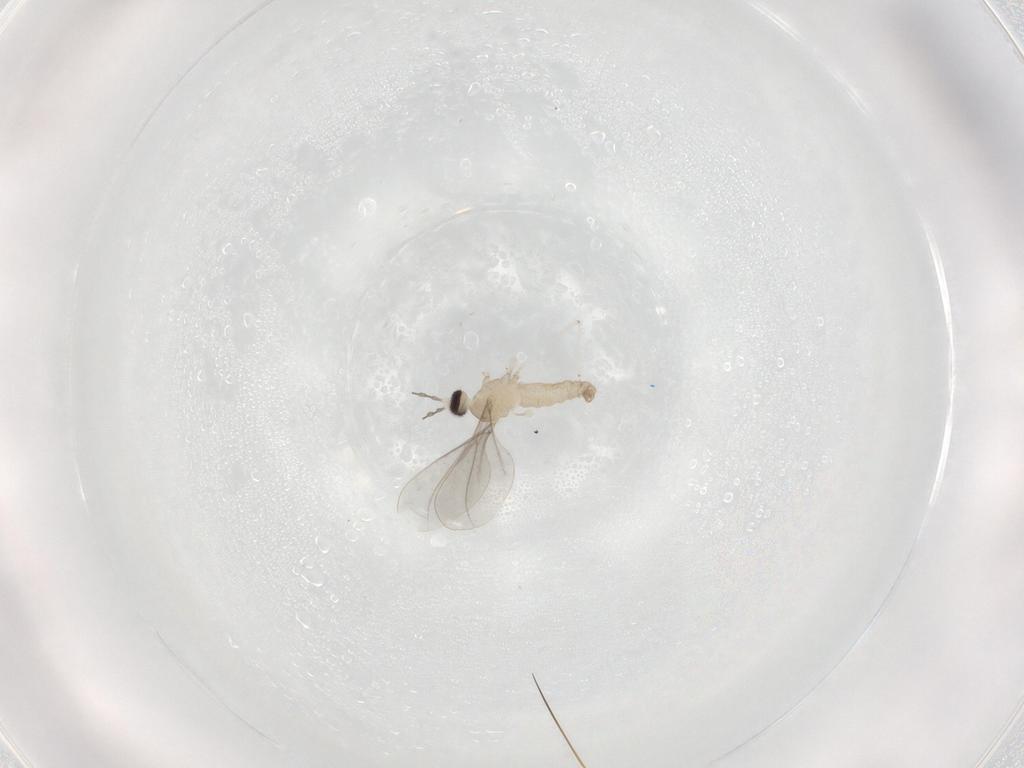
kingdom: Animalia
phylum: Arthropoda
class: Insecta
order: Diptera
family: Cecidomyiidae
